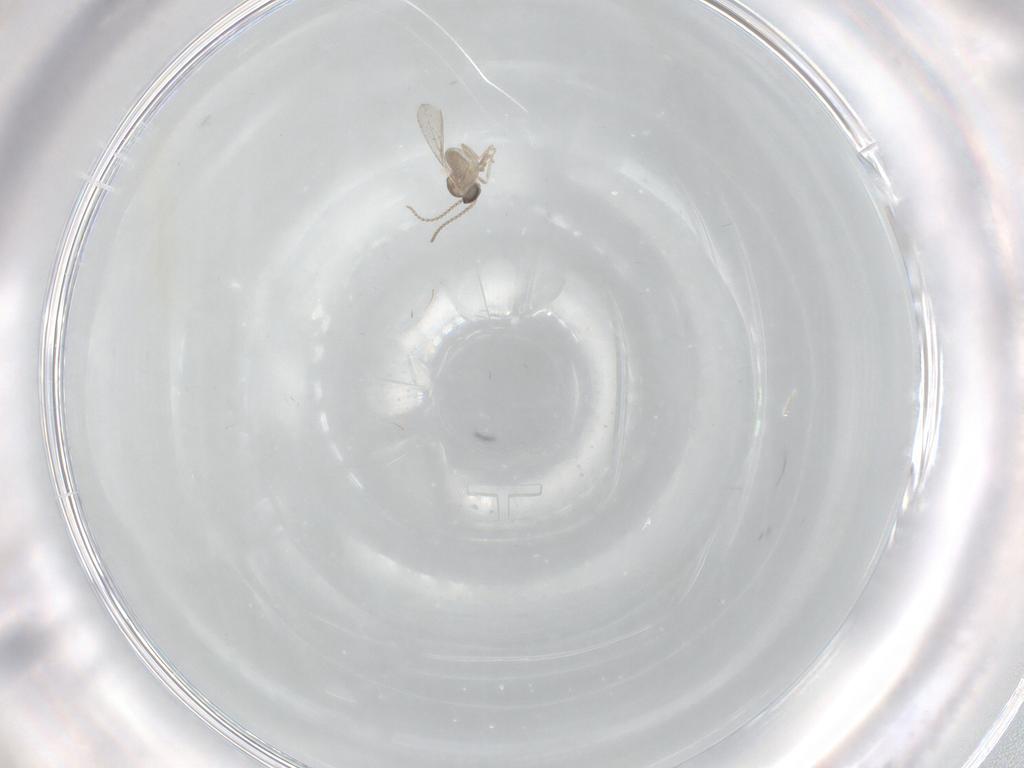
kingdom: Animalia
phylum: Arthropoda
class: Insecta
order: Diptera
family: Cecidomyiidae
